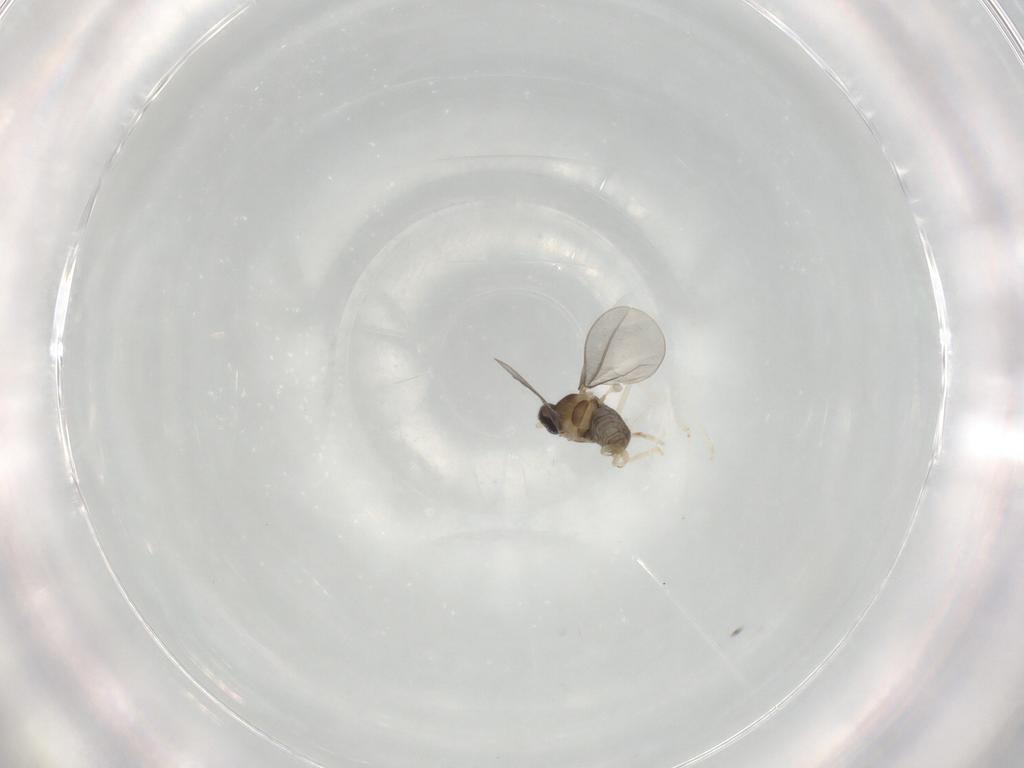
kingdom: Animalia
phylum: Arthropoda
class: Insecta
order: Diptera
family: Cecidomyiidae
